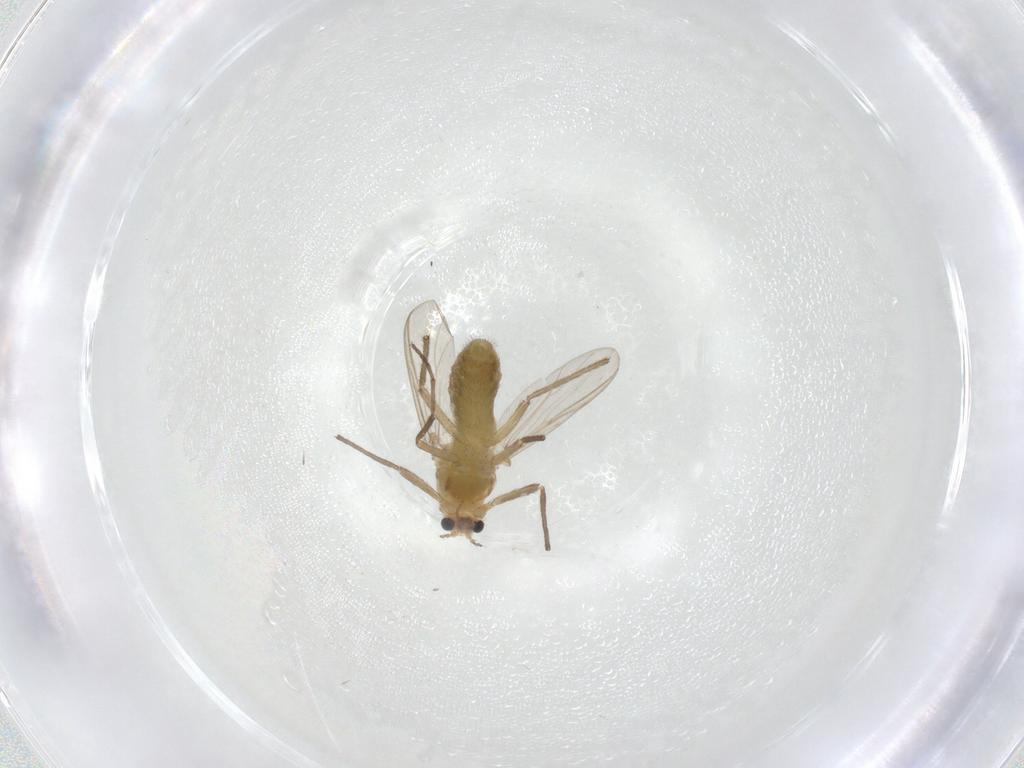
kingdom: Animalia
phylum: Arthropoda
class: Insecta
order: Diptera
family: Chironomidae
